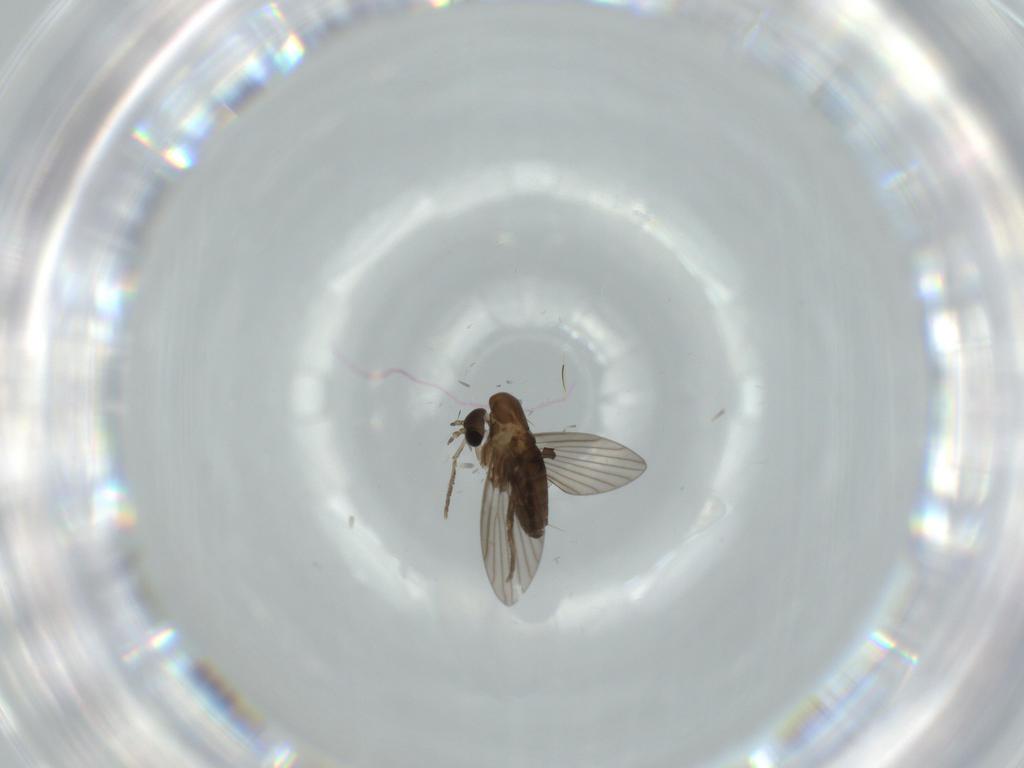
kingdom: Animalia
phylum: Arthropoda
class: Insecta
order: Diptera
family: Psychodidae
